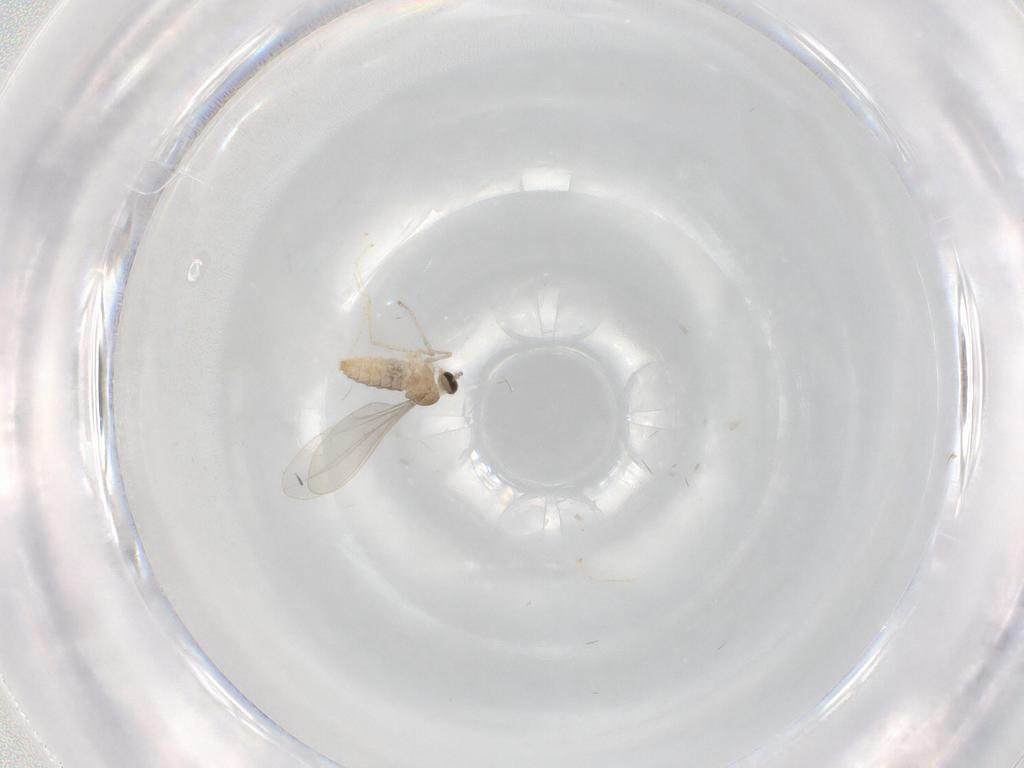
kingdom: Animalia
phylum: Arthropoda
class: Insecta
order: Diptera
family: Cecidomyiidae
